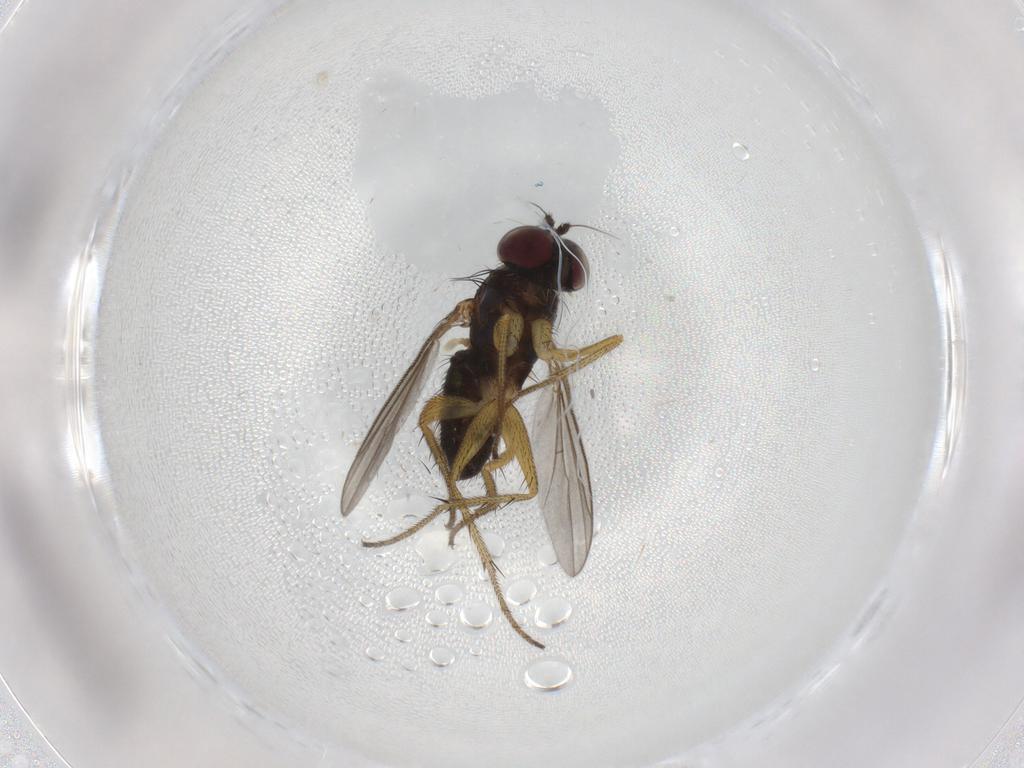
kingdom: Animalia
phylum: Arthropoda
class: Insecta
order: Diptera
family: Dolichopodidae
